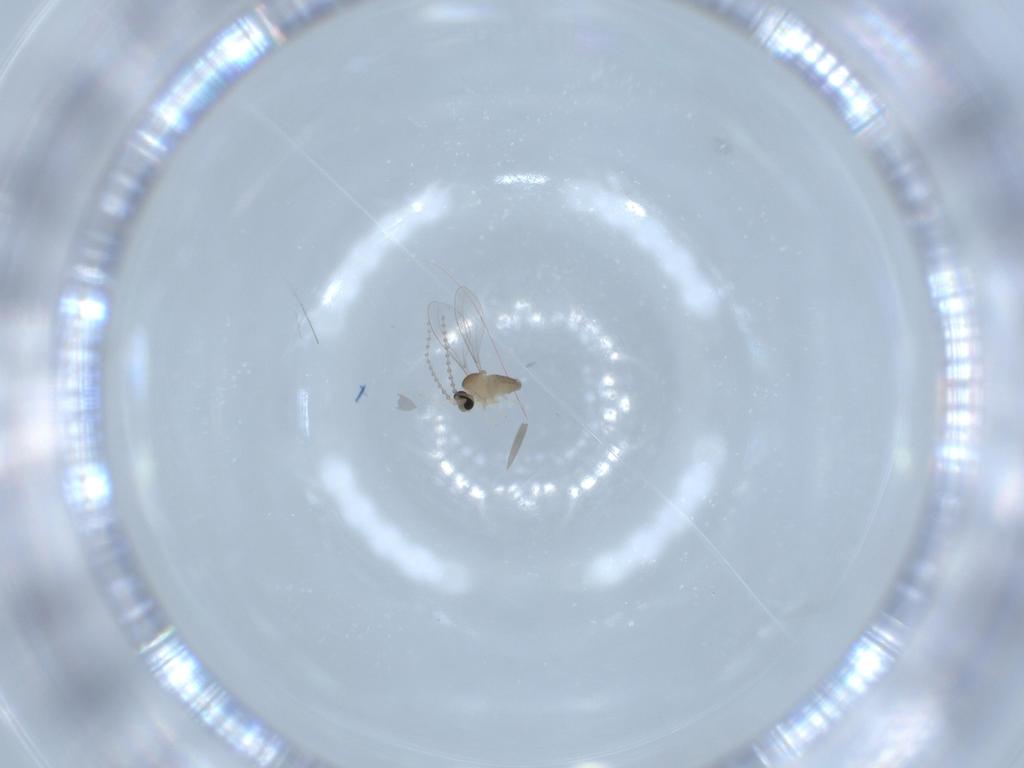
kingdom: Animalia
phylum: Arthropoda
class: Insecta
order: Diptera
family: Cecidomyiidae
